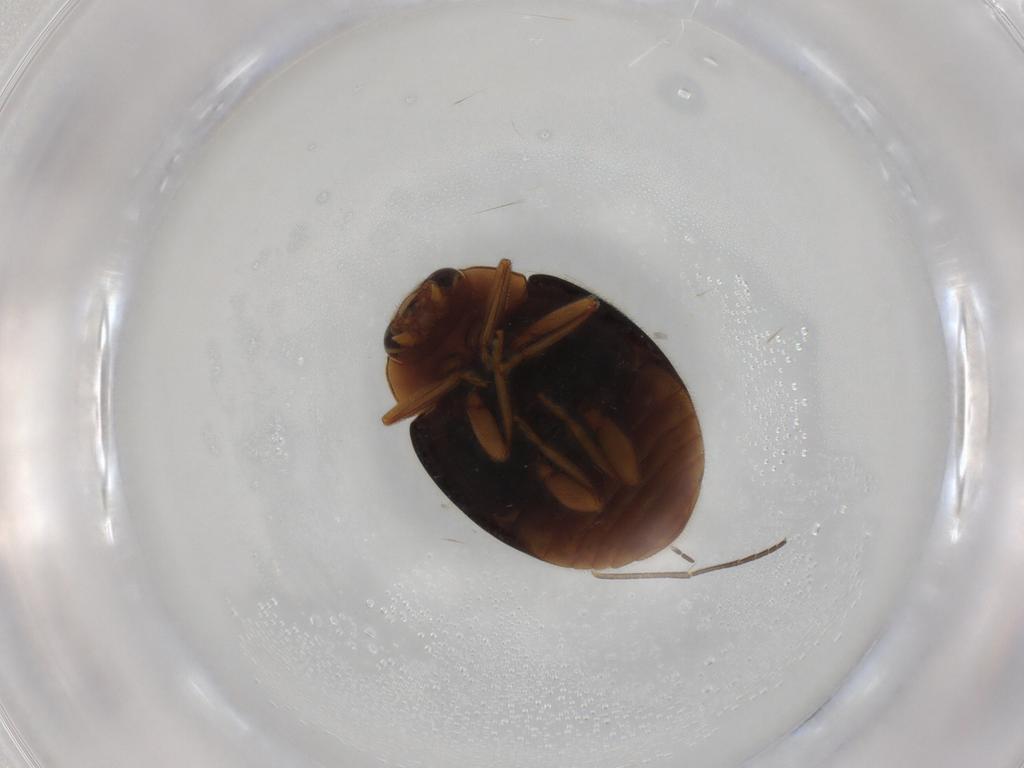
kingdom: Animalia
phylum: Arthropoda
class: Insecta
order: Coleoptera
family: Coccinellidae
